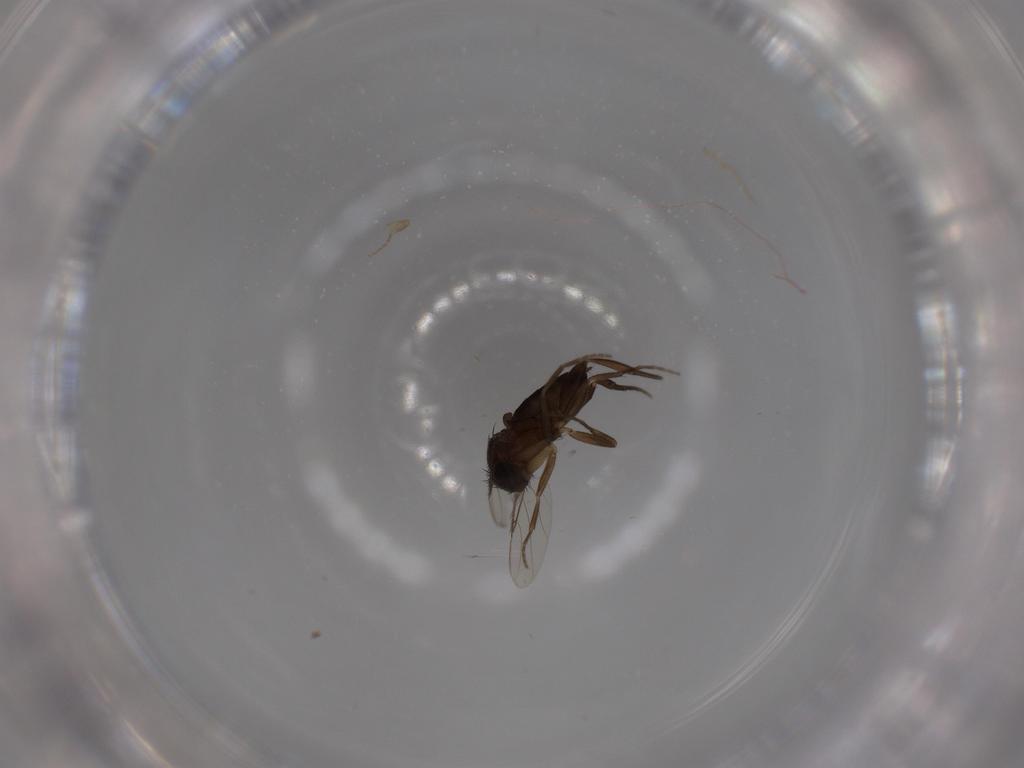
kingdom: Animalia
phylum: Arthropoda
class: Insecta
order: Diptera
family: Phoridae
